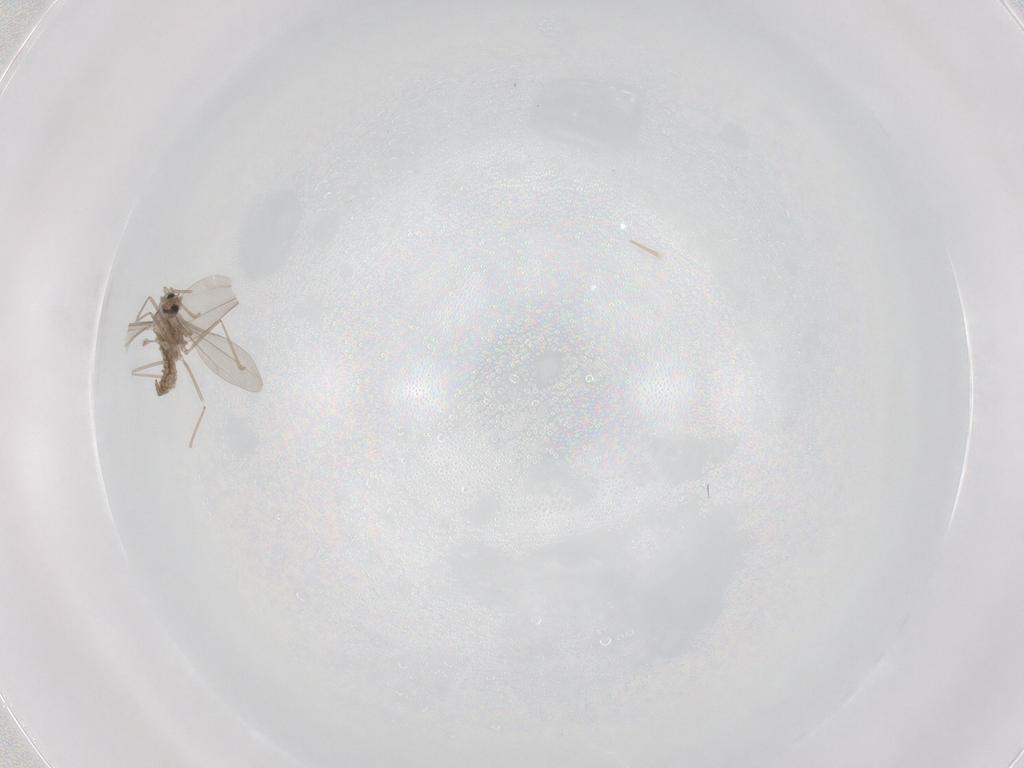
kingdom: Animalia
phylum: Arthropoda
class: Insecta
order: Diptera
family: Cecidomyiidae
